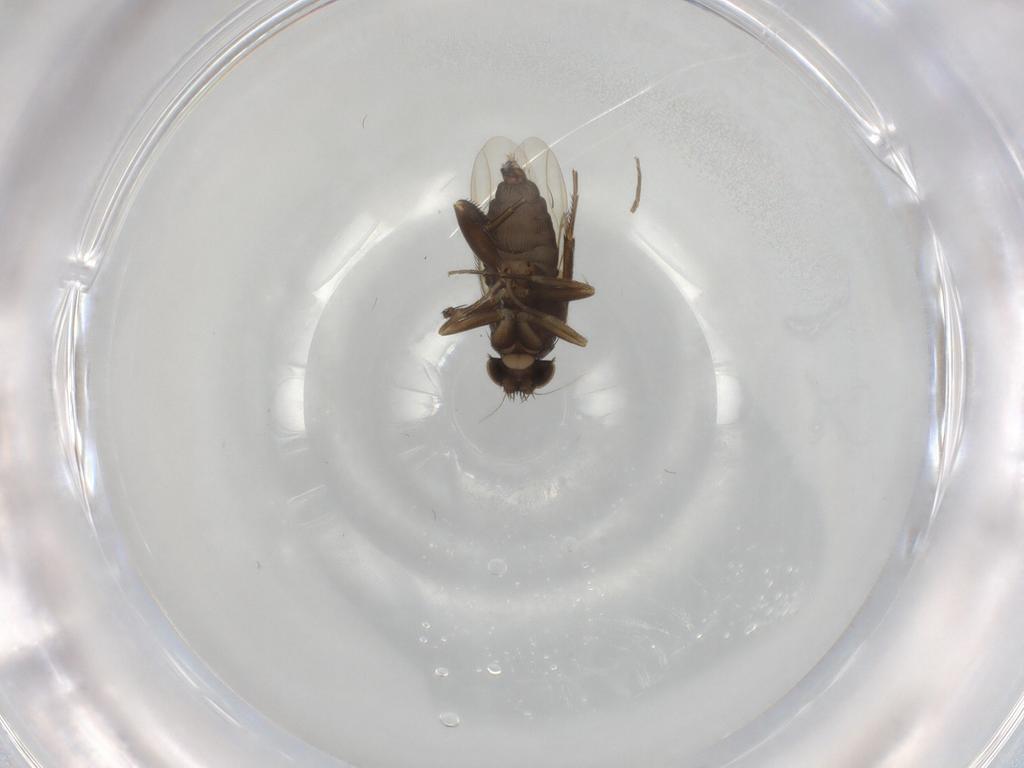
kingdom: Animalia
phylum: Arthropoda
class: Insecta
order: Diptera
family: Phoridae
